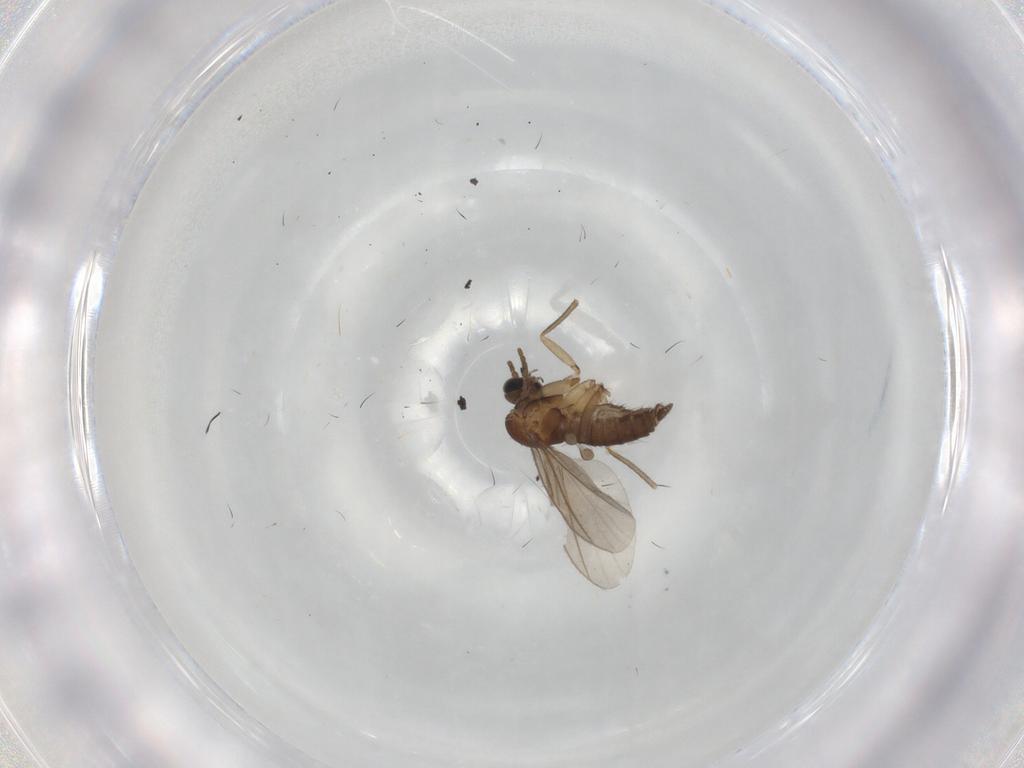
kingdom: Animalia
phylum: Arthropoda
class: Insecta
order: Diptera
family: Sciaridae
